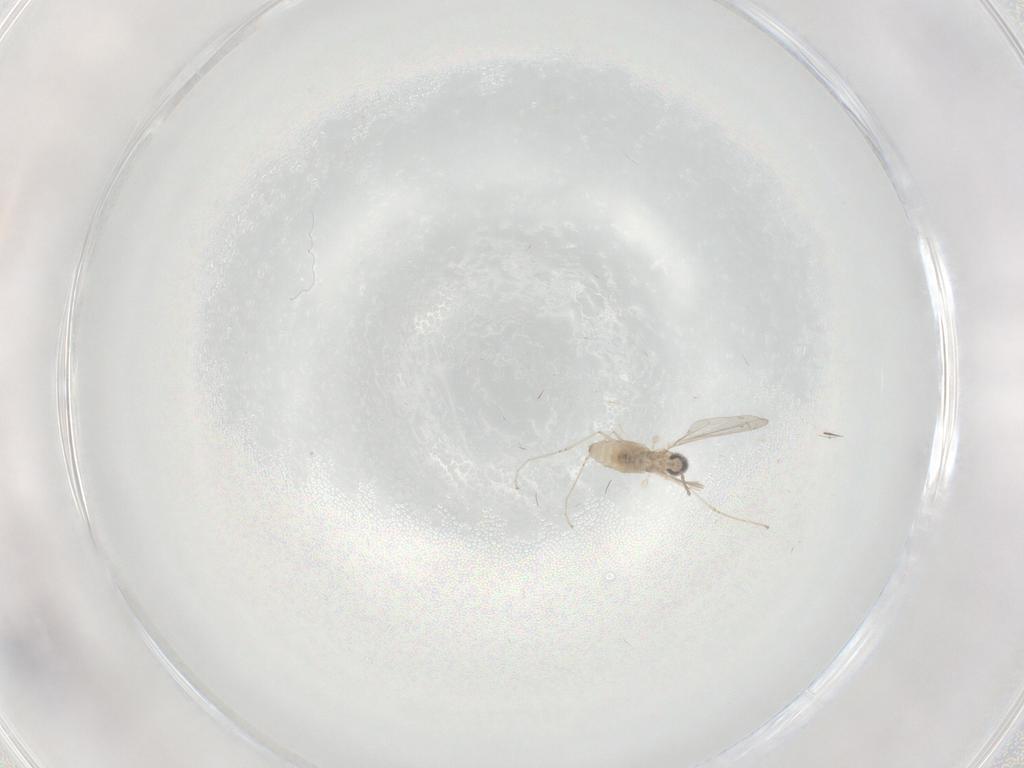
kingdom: Animalia
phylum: Arthropoda
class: Insecta
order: Diptera
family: Cecidomyiidae
